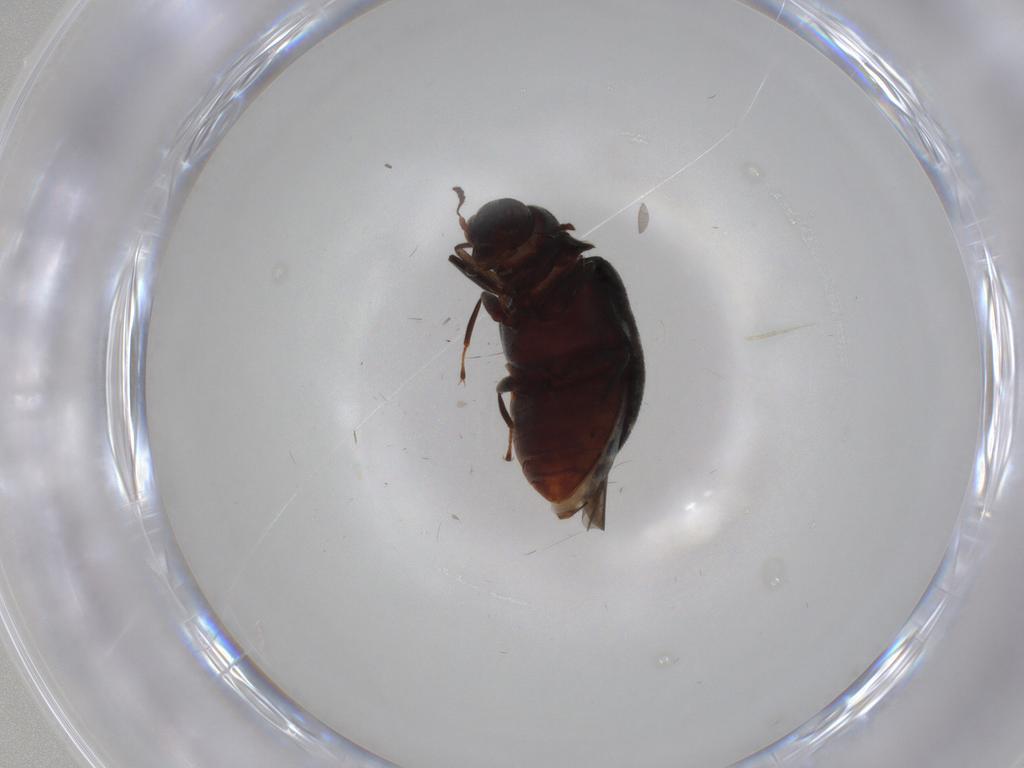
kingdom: Animalia
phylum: Arthropoda
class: Insecta
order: Coleoptera
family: Limnichidae
